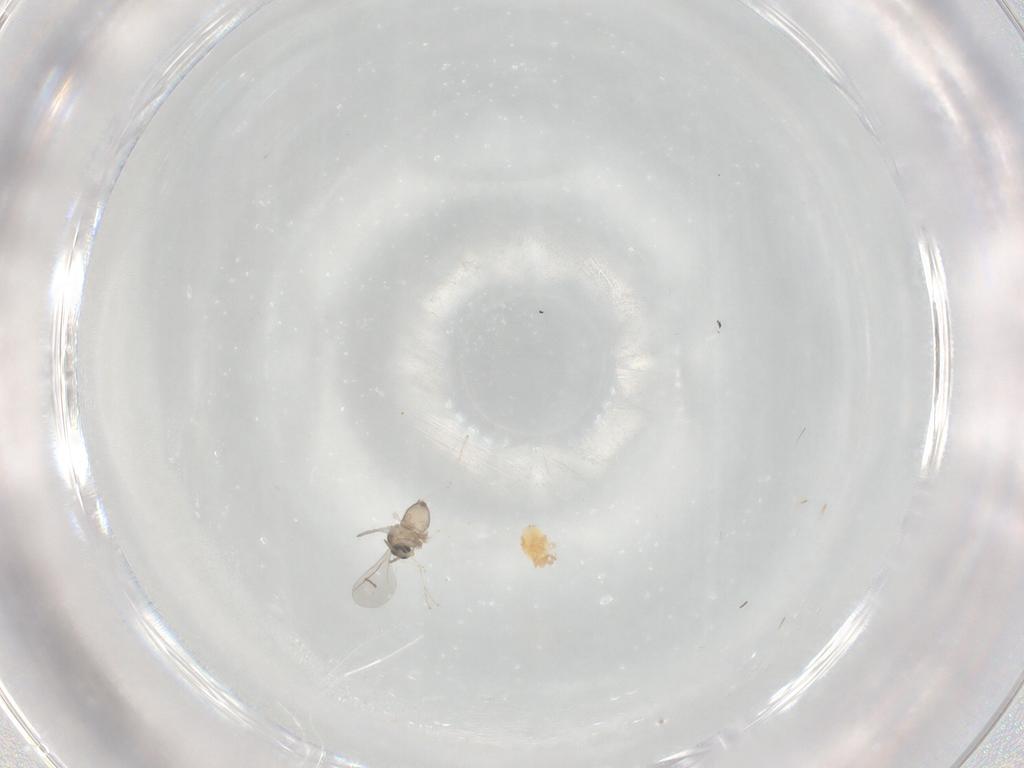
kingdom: Animalia
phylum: Arthropoda
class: Insecta
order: Diptera
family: Cecidomyiidae
